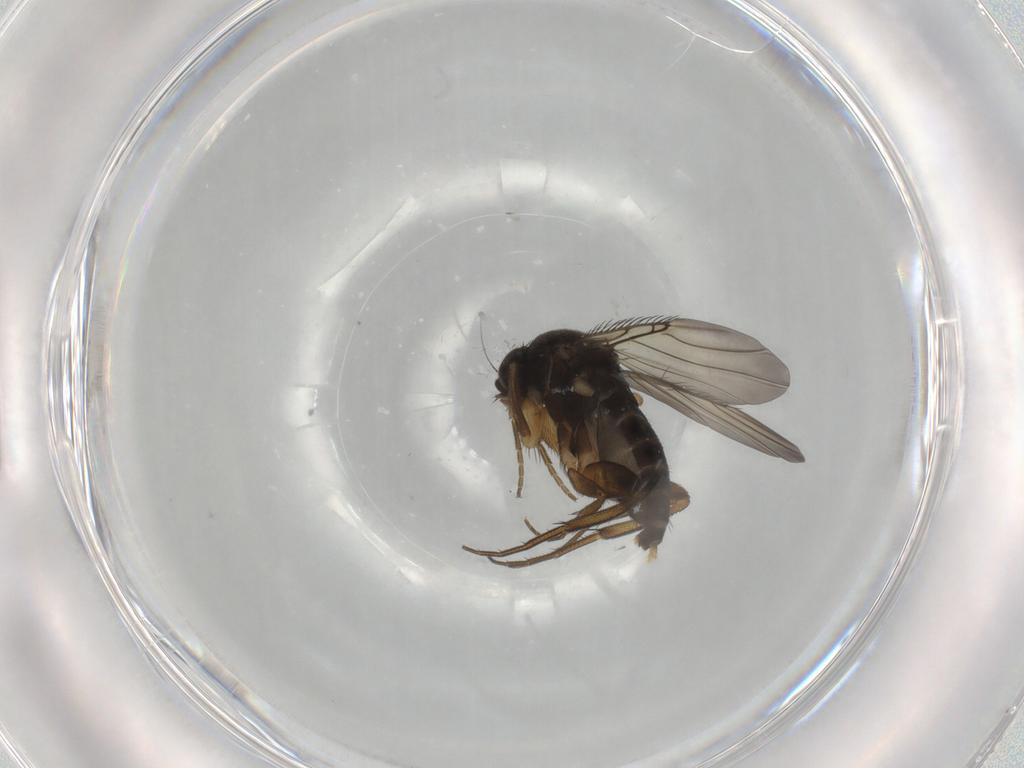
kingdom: Animalia
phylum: Arthropoda
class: Insecta
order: Diptera
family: Phoridae
